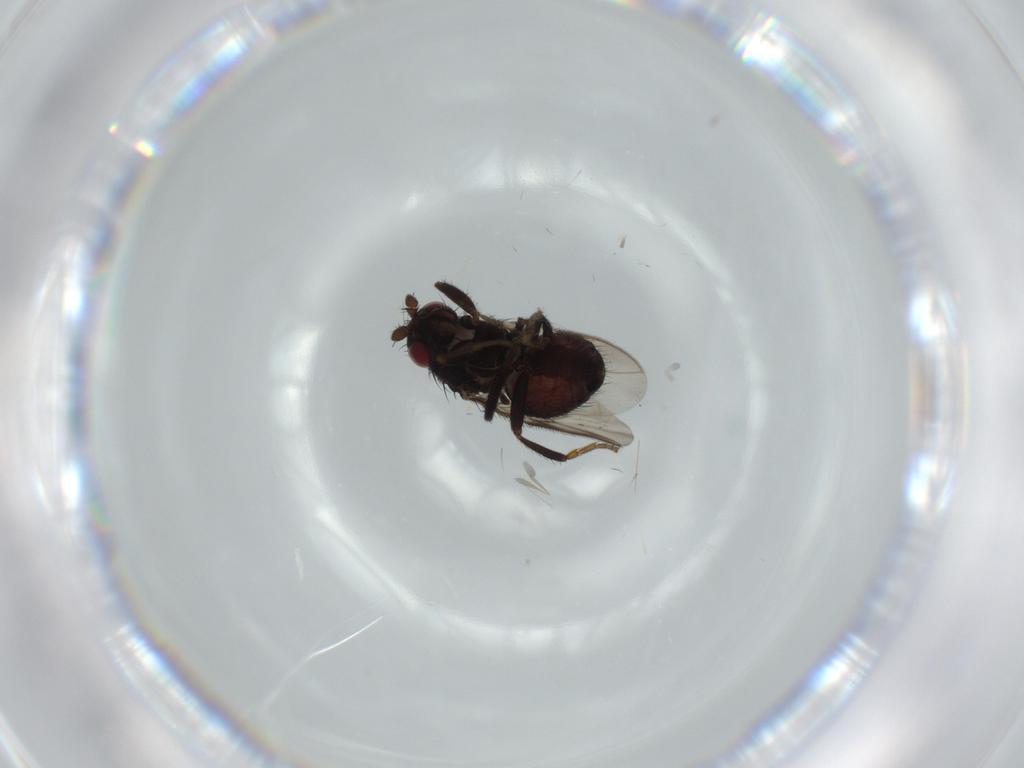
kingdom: Animalia
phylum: Arthropoda
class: Insecta
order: Diptera
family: Sphaeroceridae
